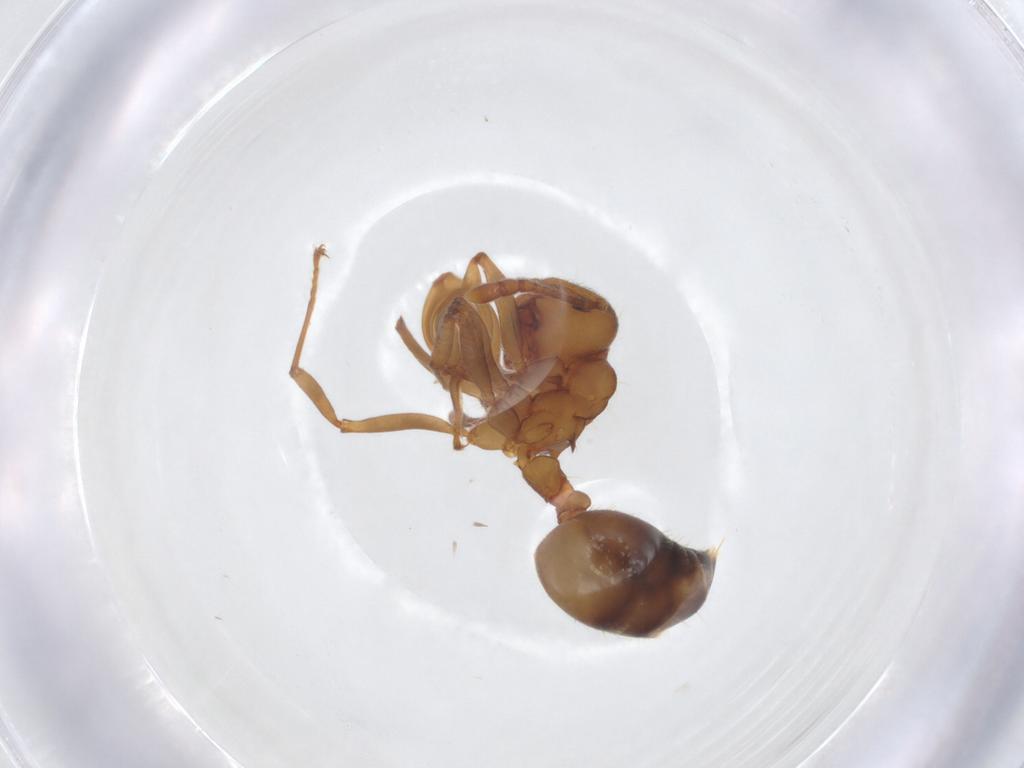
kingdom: Animalia
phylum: Arthropoda
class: Insecta
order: Hymenoptera
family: Formicidae
